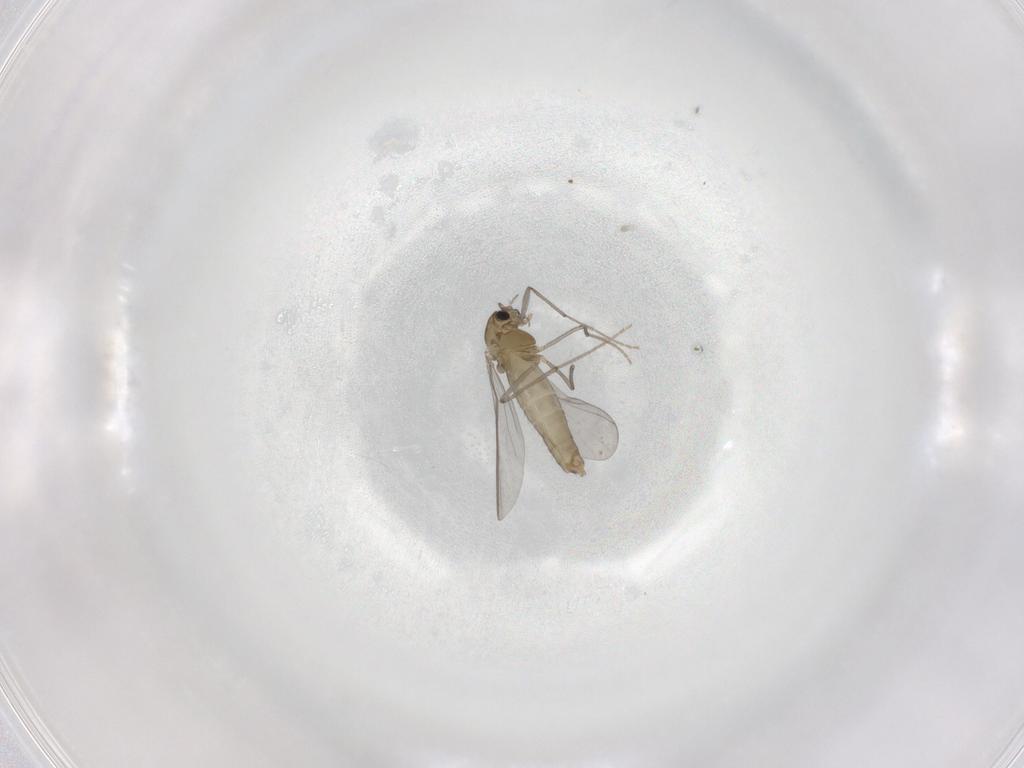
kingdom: Animalia
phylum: Arthropoda
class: Insecta
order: Diptera
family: Chironomidae
